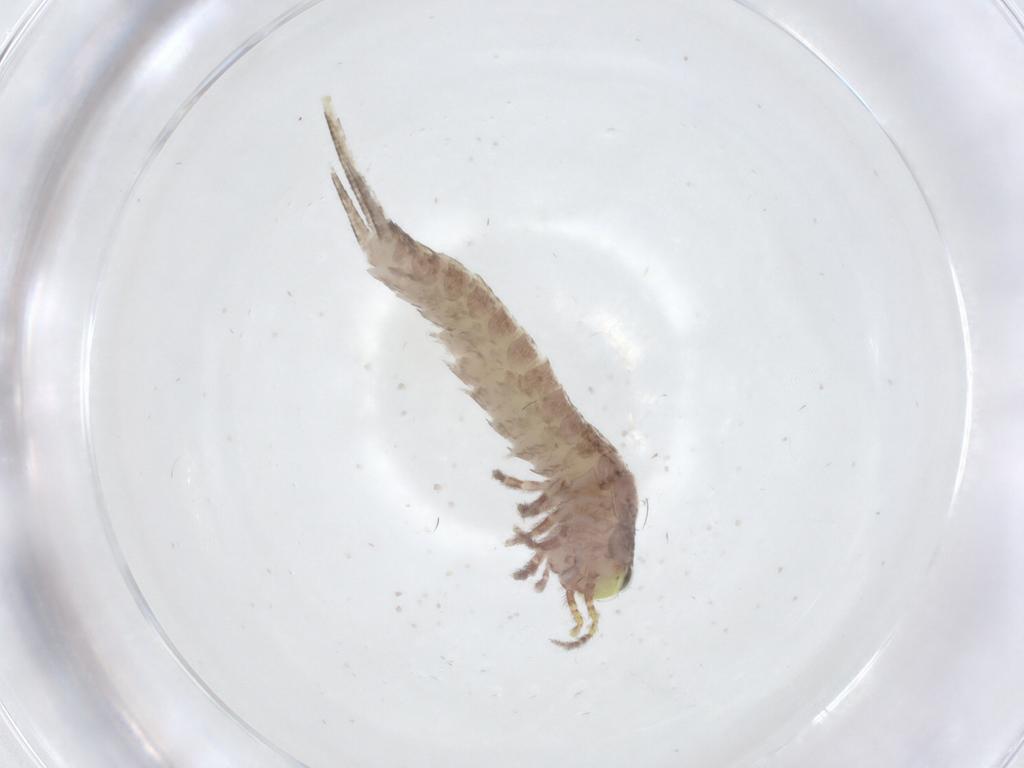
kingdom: Animalia
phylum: Arthropoda
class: Insecta
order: Archaeognatha
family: Machilidae
